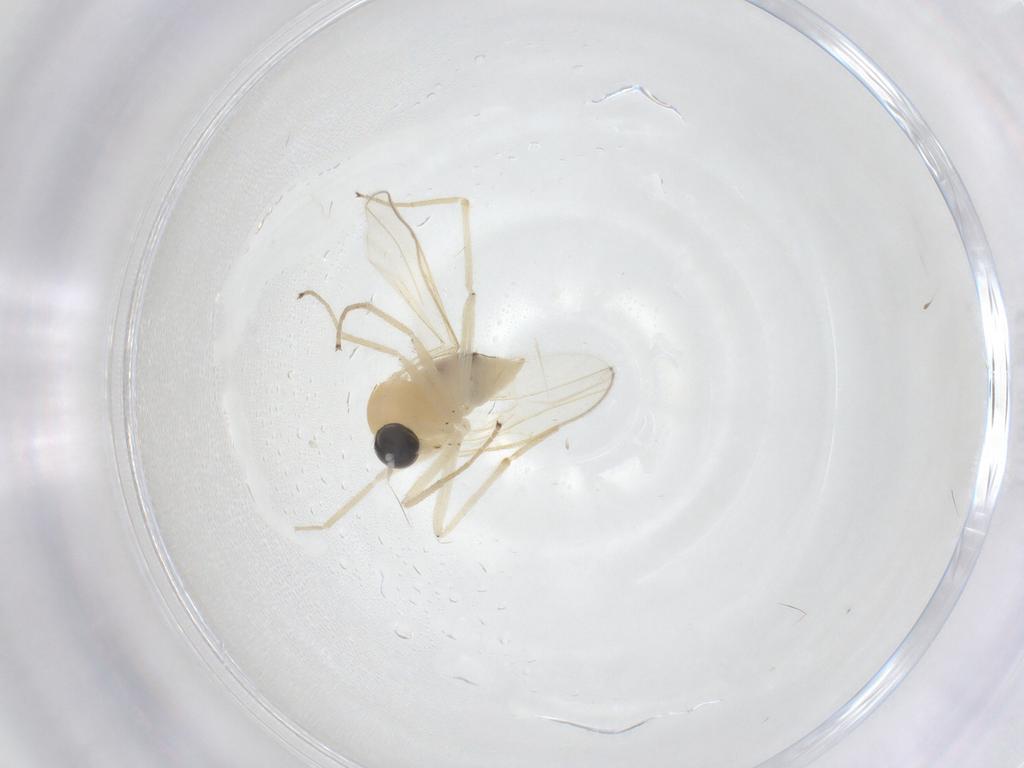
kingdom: Animalia
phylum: Arthropoda
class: Insecta
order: Diptera
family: Hybotidae
